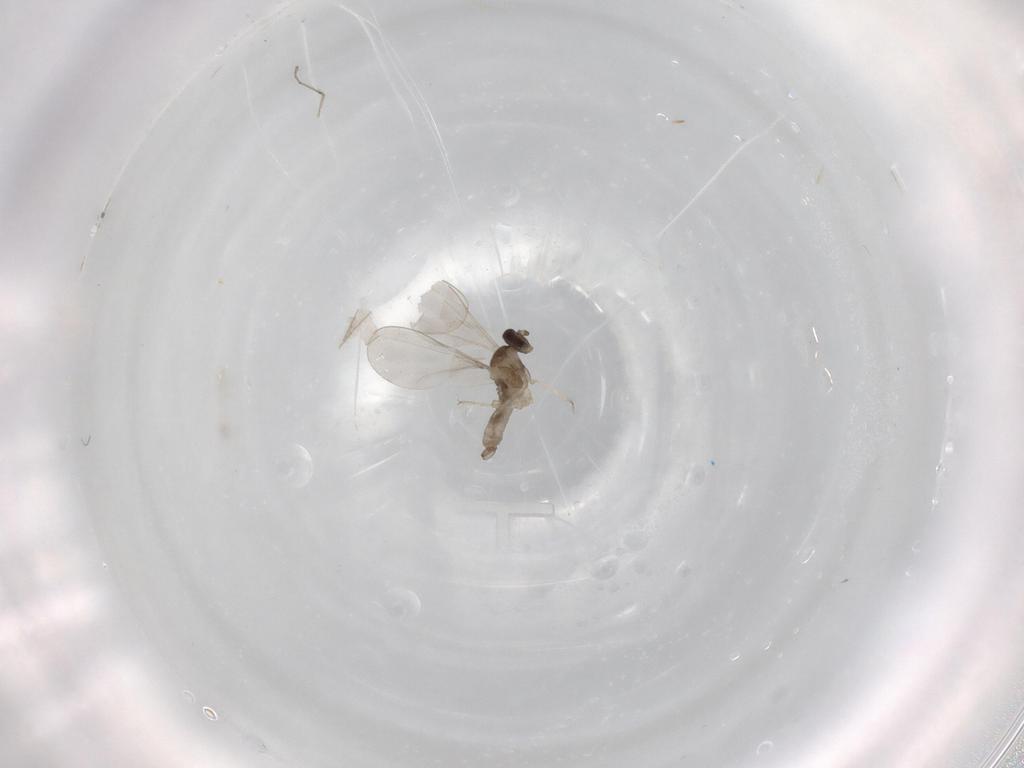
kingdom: Animalia
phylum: Arthropoda
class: Insecta
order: Diptera
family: Cecidomyiidae
